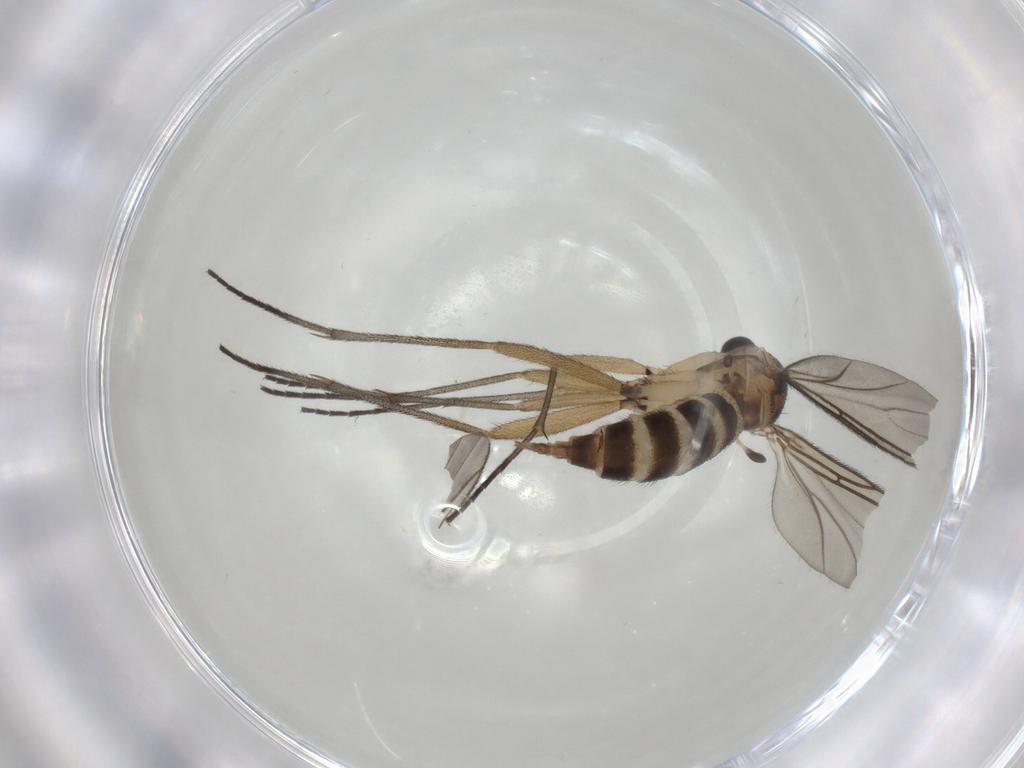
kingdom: Animalia
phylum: Arthropoda
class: Insecta
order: Diptera
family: Sciaridae
